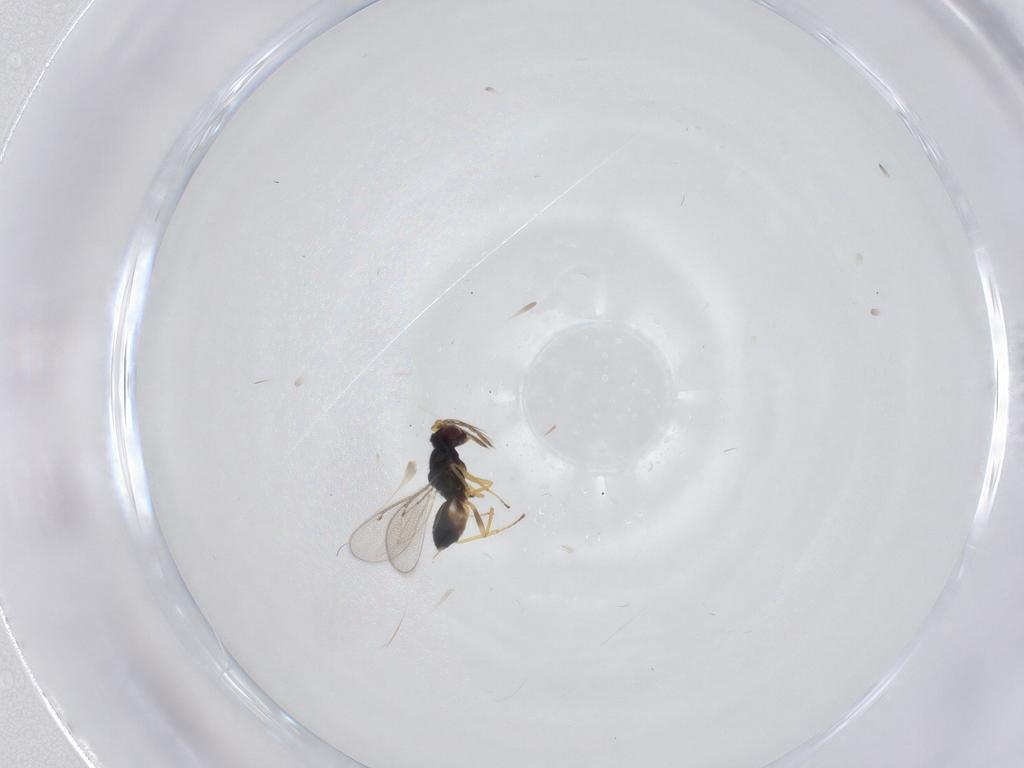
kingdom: Animalia
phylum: Arthropoda
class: Insecta
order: Hymenoptera
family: Eulophidae
